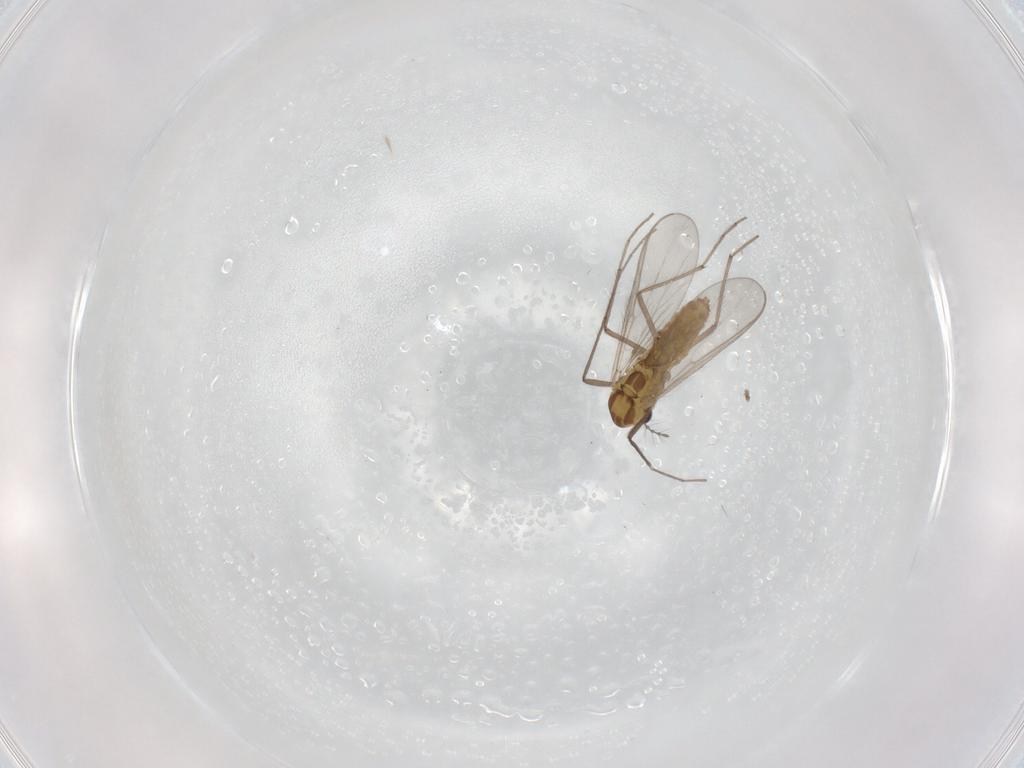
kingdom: Animalia
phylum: Arthropoda
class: Insecta
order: Diptera
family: Chironomidae
